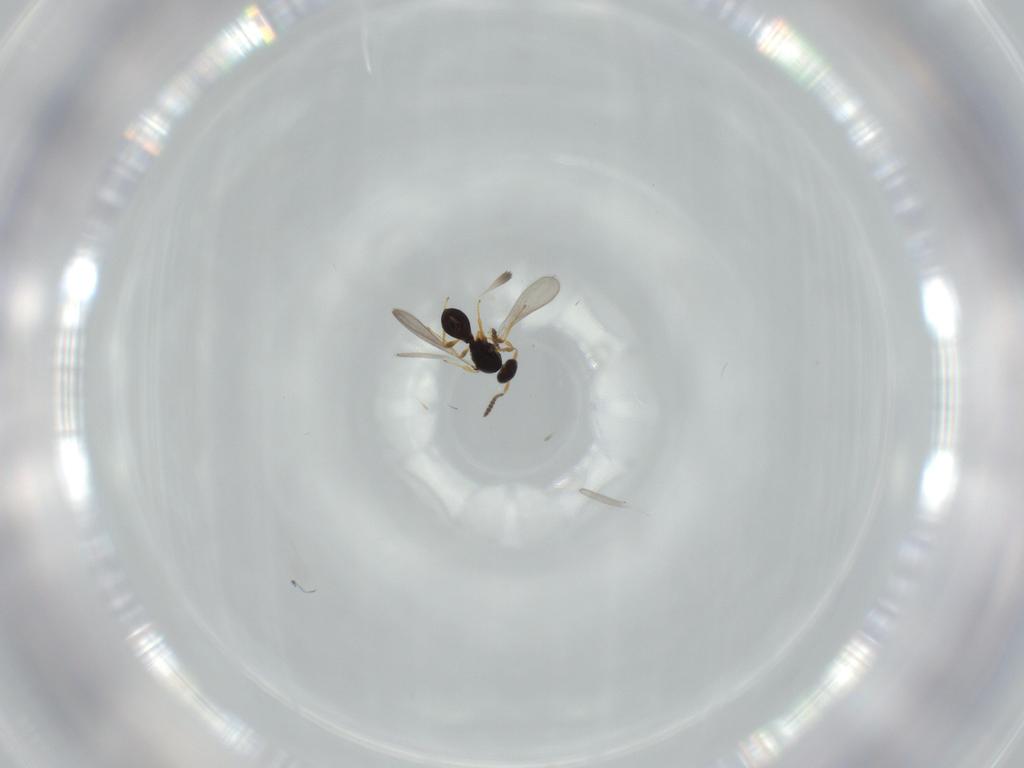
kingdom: Animalia
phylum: Arthropoda
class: Insecta
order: Hymenoptera
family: Platygastridae
